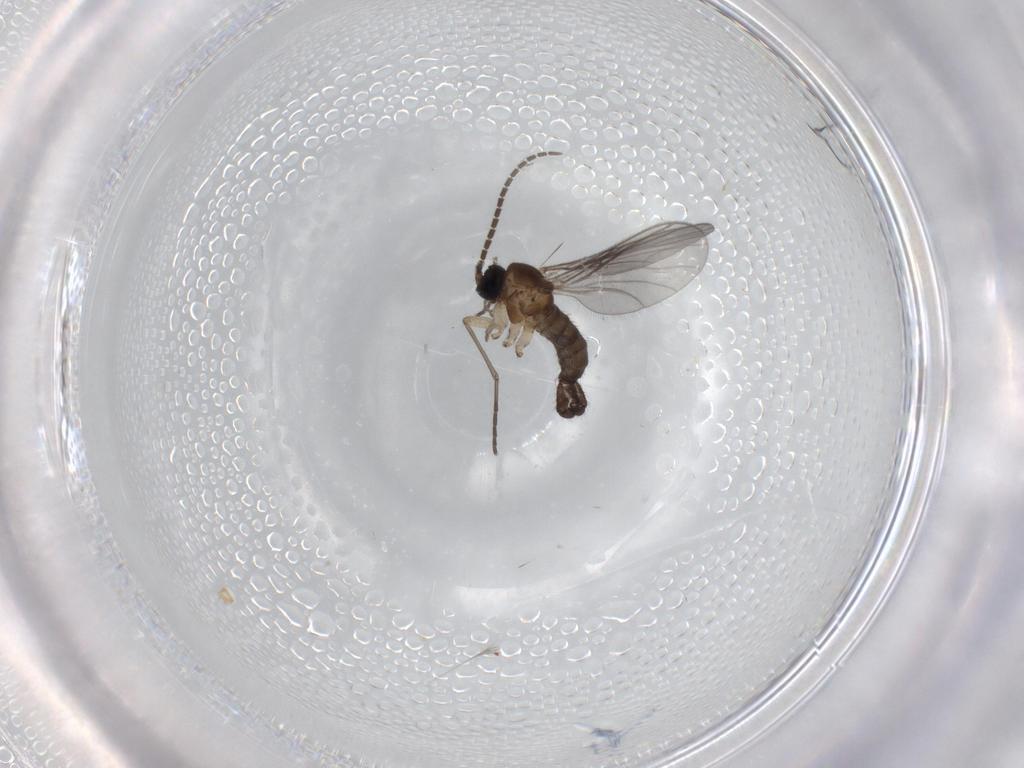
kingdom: Animalia
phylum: Arthropoda
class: Insecta
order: Diptera
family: Sciaridae
